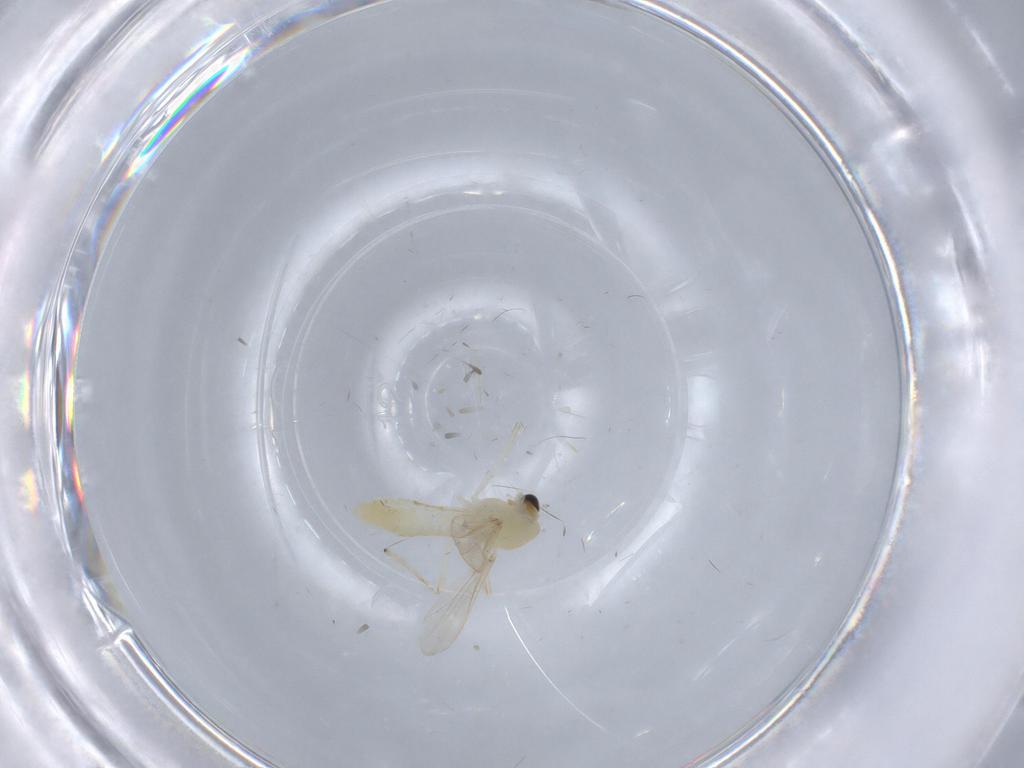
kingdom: Animalia
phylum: Arthropoda
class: Insecta
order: Diptera
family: Chironomidae
